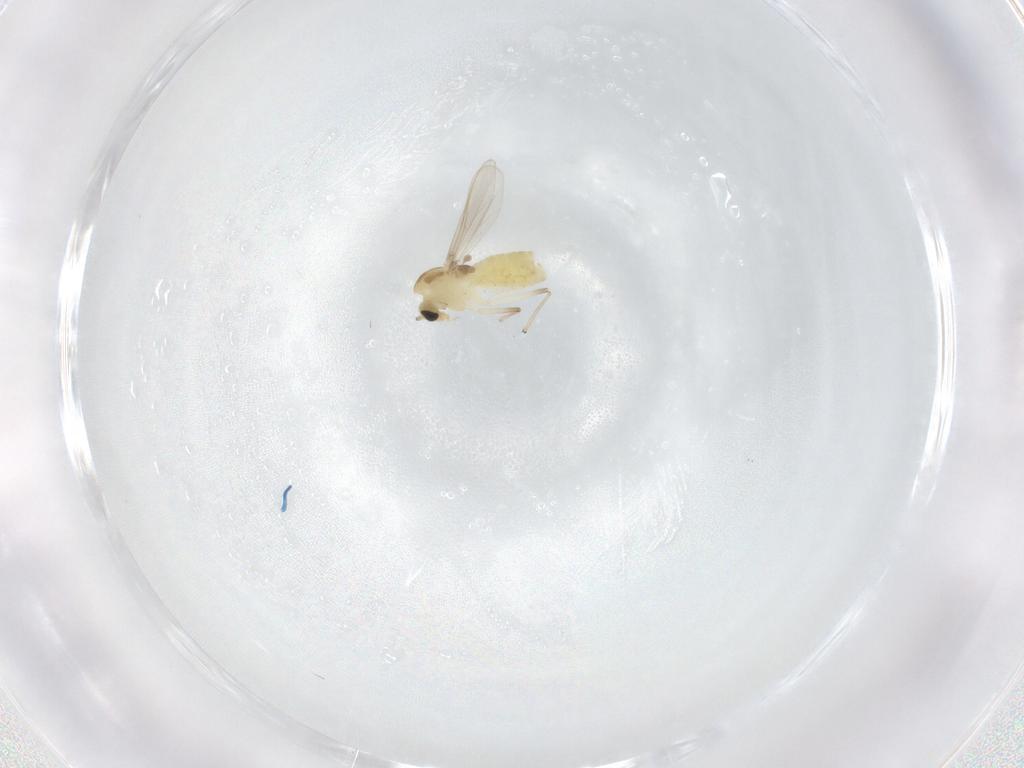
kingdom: Animalia
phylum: Arthropoda
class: Insecta
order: Diptera
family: Chironomidae
